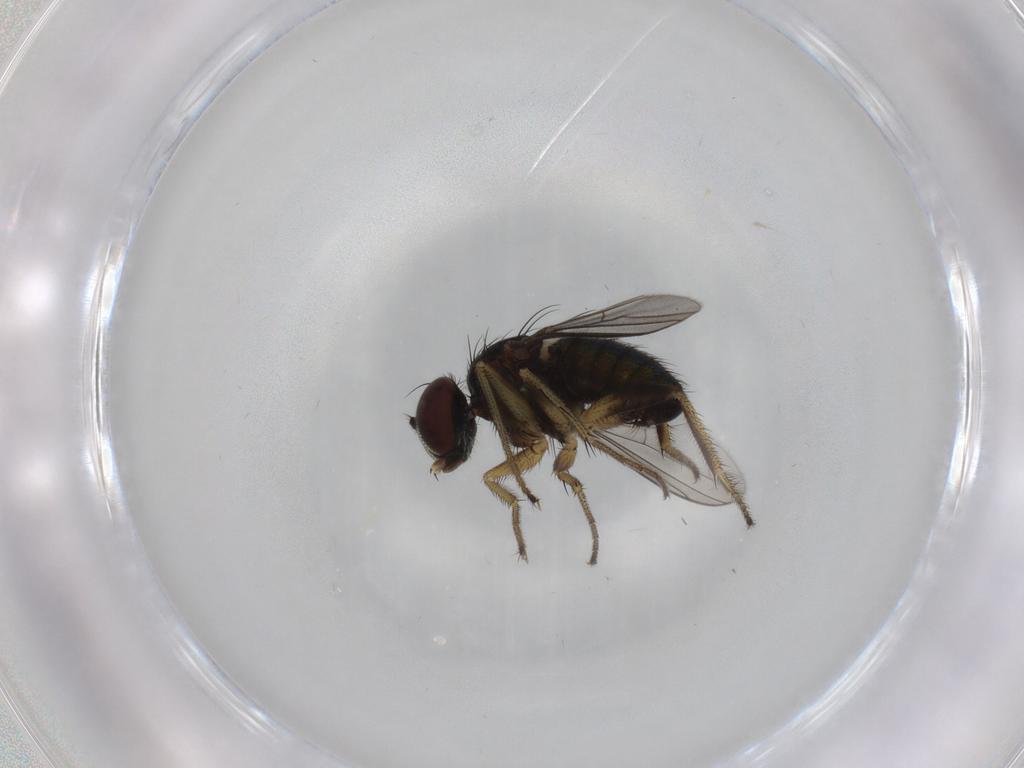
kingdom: Animalia
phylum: Arthropoda
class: Insecta
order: Diptera
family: Dolichopodidae
